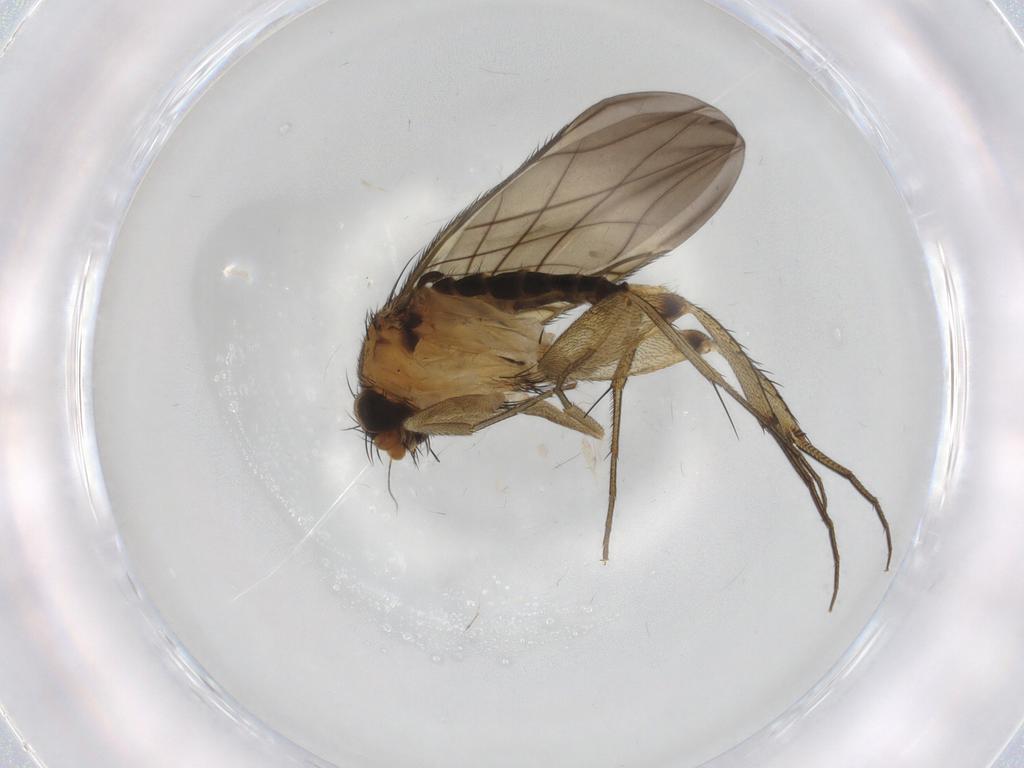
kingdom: Animalia
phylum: Arthropoda
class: Insecta
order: Diptera
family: Phoridae
